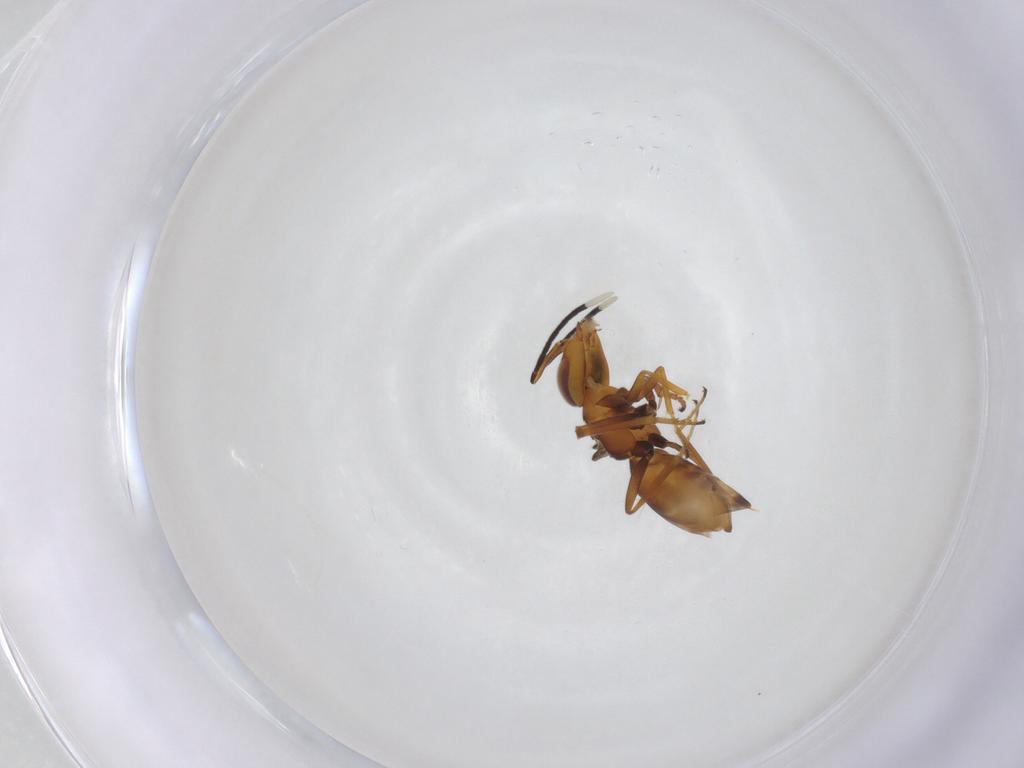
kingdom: Animalia
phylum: Arthropoda
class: Insecta
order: Hymenoptera
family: Encyrtidae
